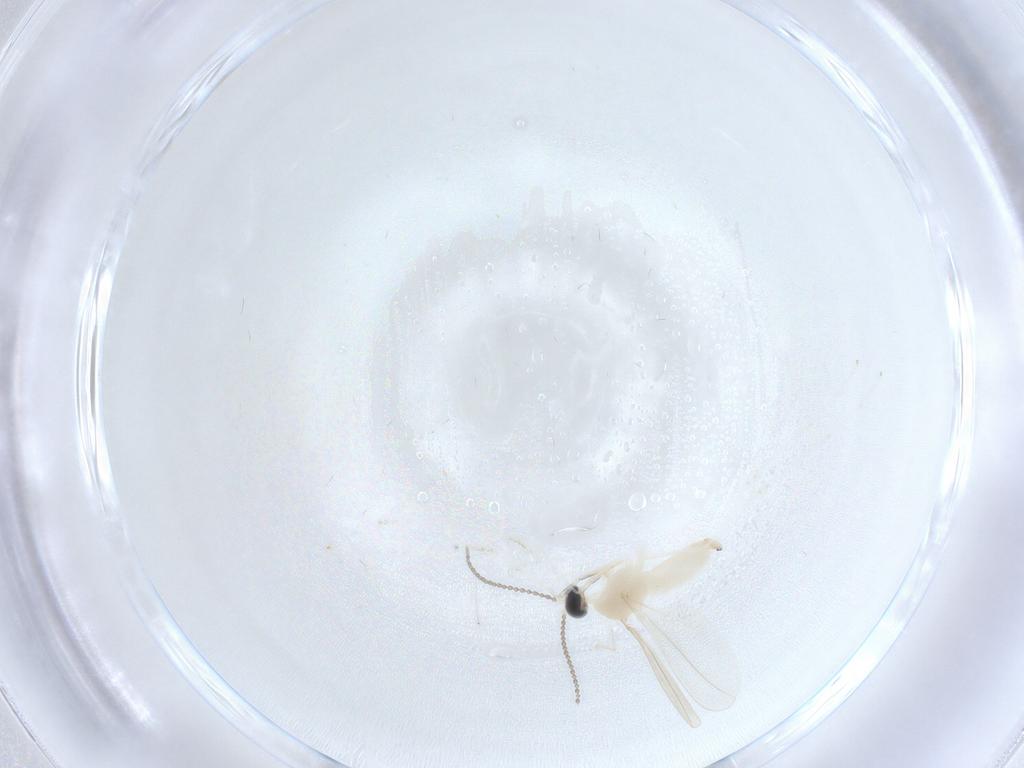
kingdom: Animalia
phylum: Arthropoda
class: Insecta
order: Diptera
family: Cecidomyiidae
